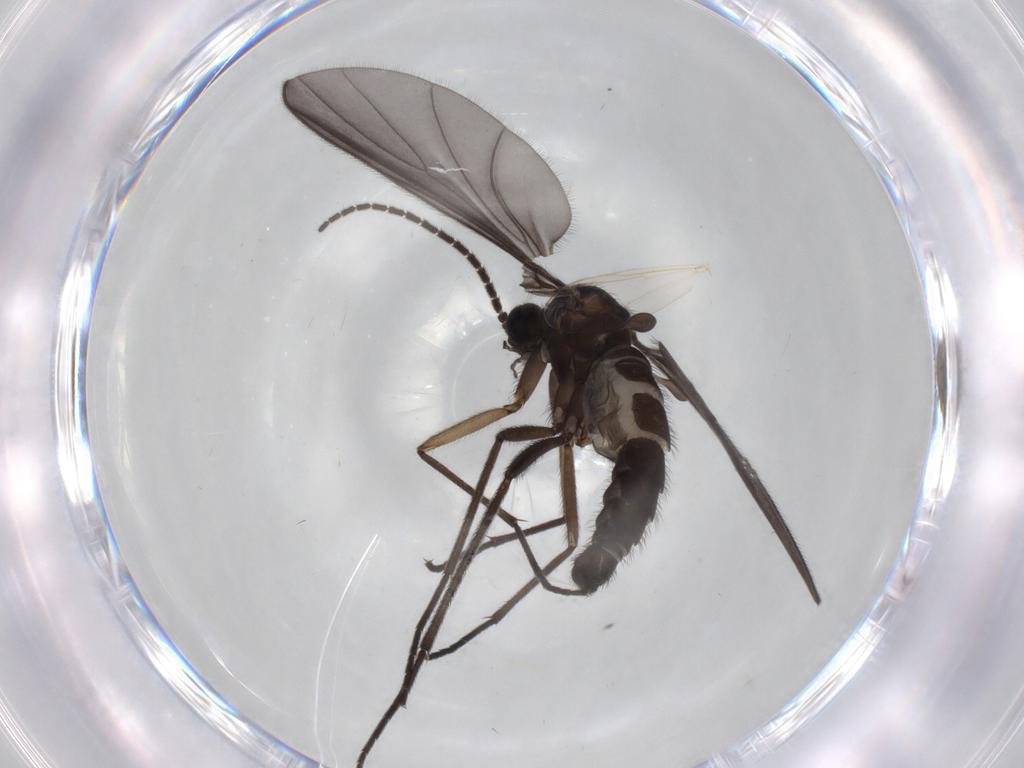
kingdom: Animalia
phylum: Arthropoda
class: Insecta
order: Diptera
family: Sciaridae
